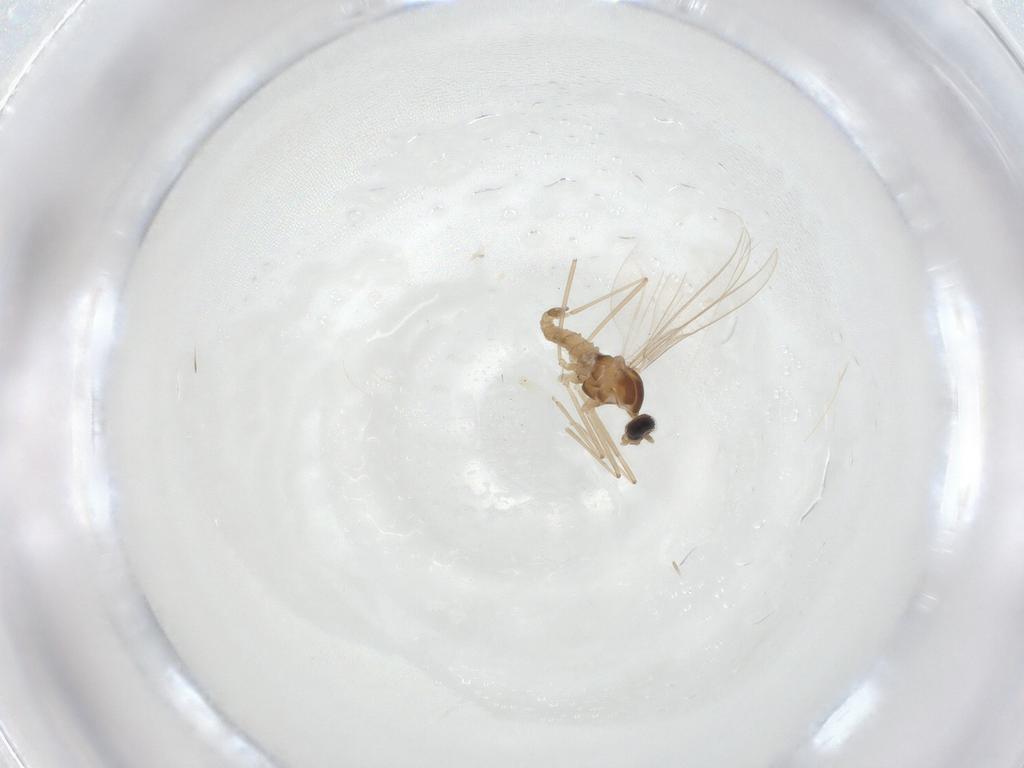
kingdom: Animalia
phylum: Arthropoda
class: Insecta
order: Diptera
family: Cecidomyiidae
